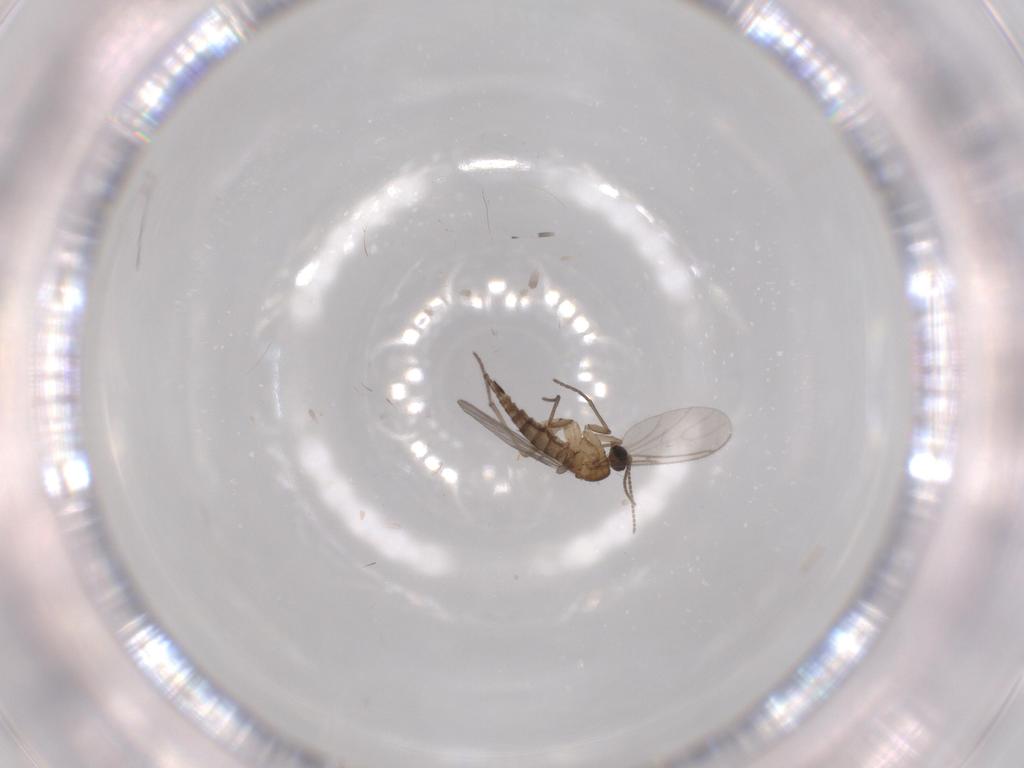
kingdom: Animalia
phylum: Arthropoda
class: Insecta
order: Diptera
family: Sciaridae
